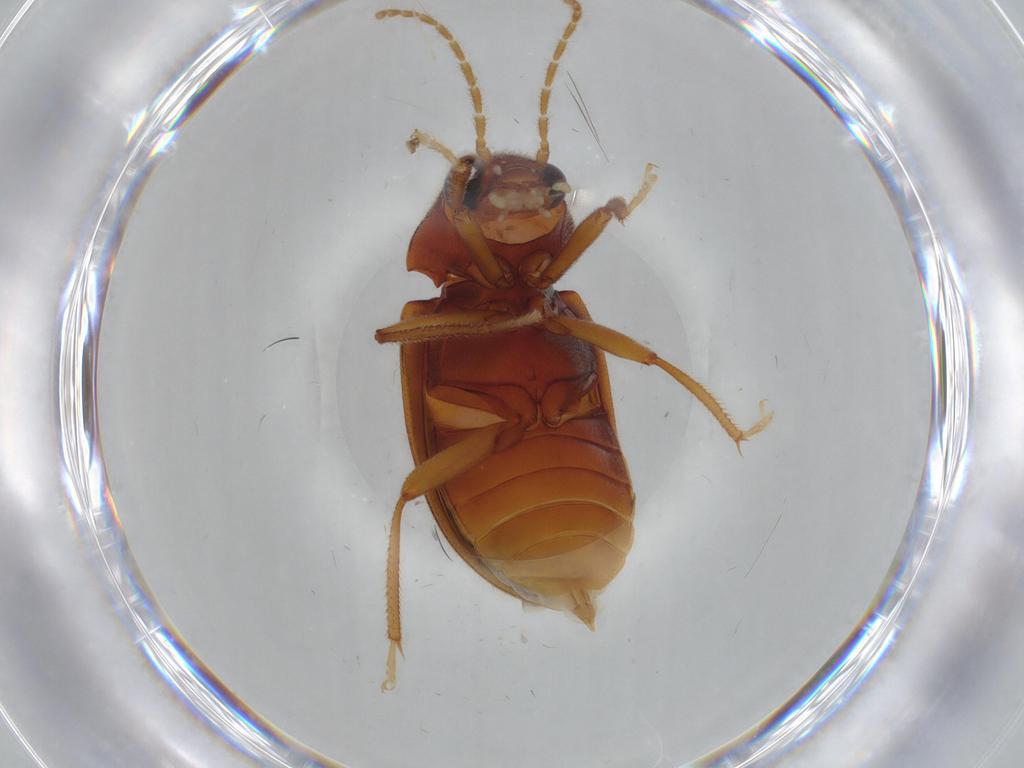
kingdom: Animalia
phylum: Arthropoda
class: Insecta
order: Coleoptera
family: Ptilodactylidae
